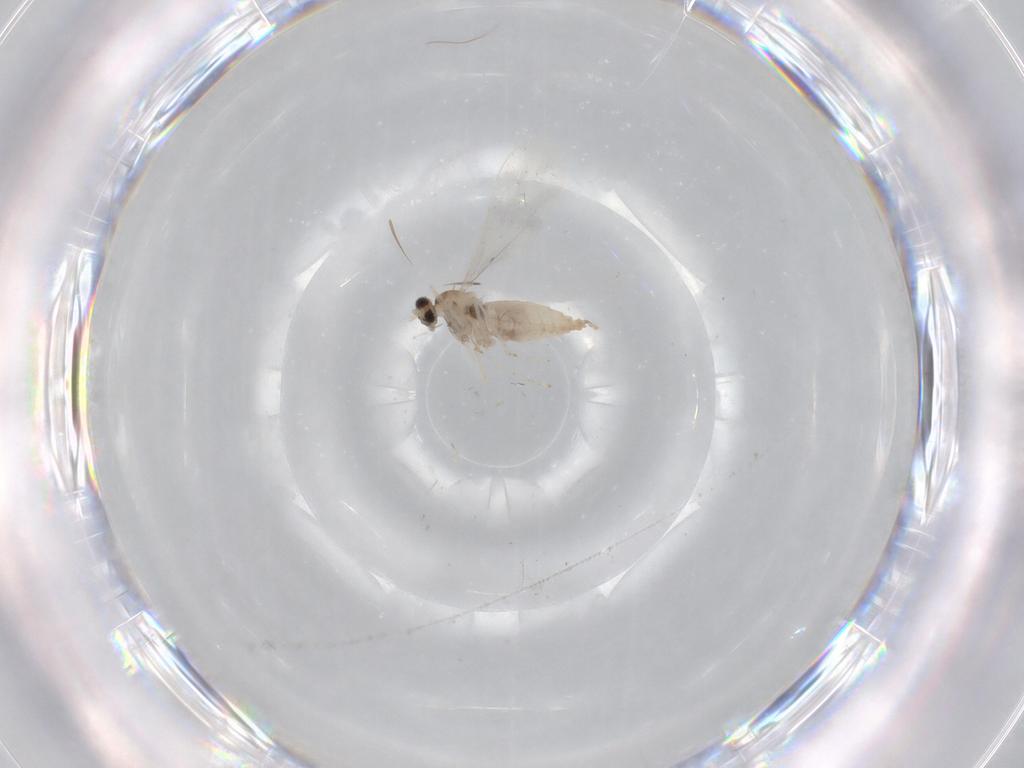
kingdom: Animalia
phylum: Arthropoda
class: Insecta
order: Diptera
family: Cecidomyiidae
